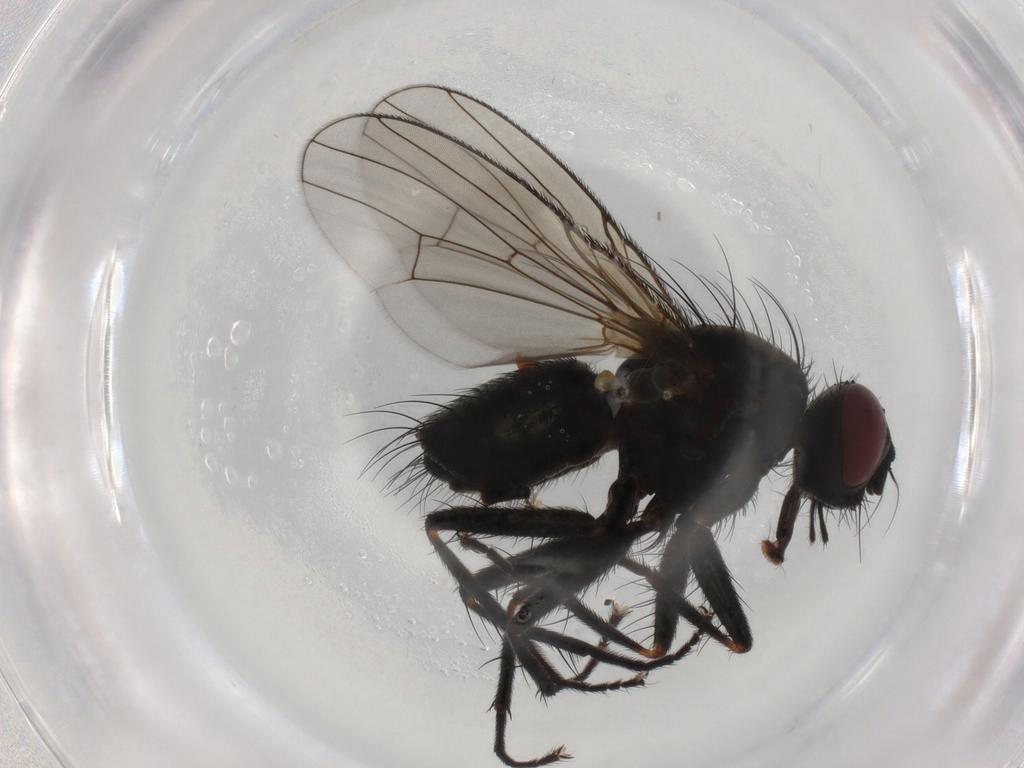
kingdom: Animalia
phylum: Arthropoda
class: Insecta
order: Diptera
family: Muscidae
